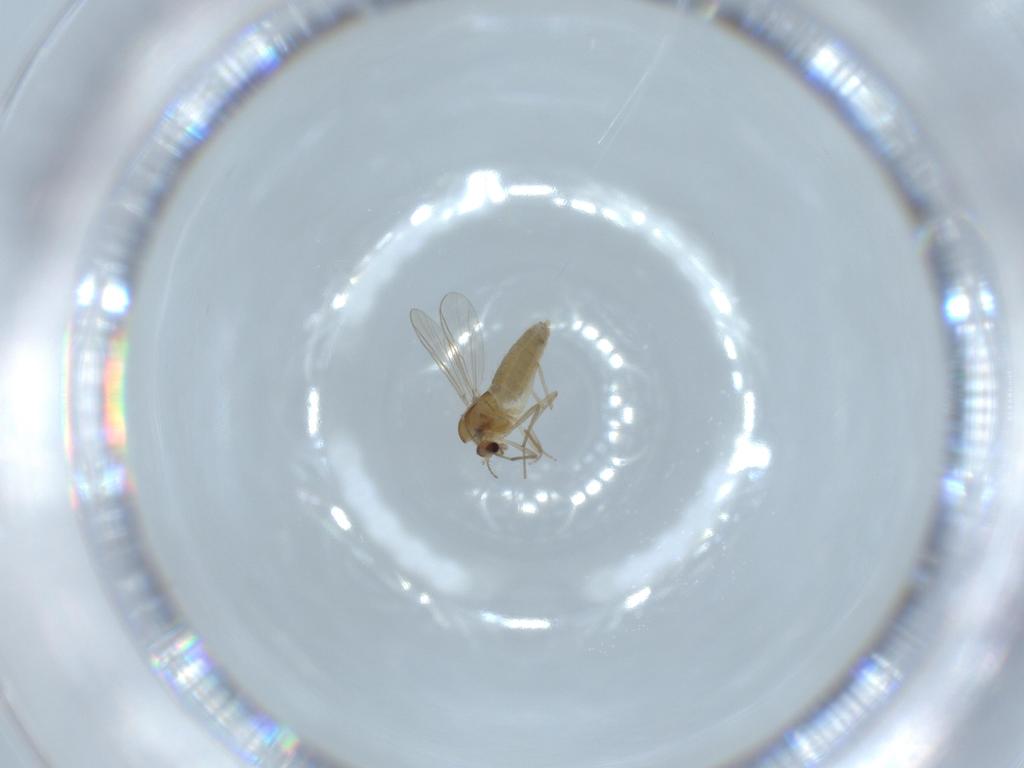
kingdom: Animalia
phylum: Arthropoda
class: Insecta
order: Diptera
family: Chironomidae
